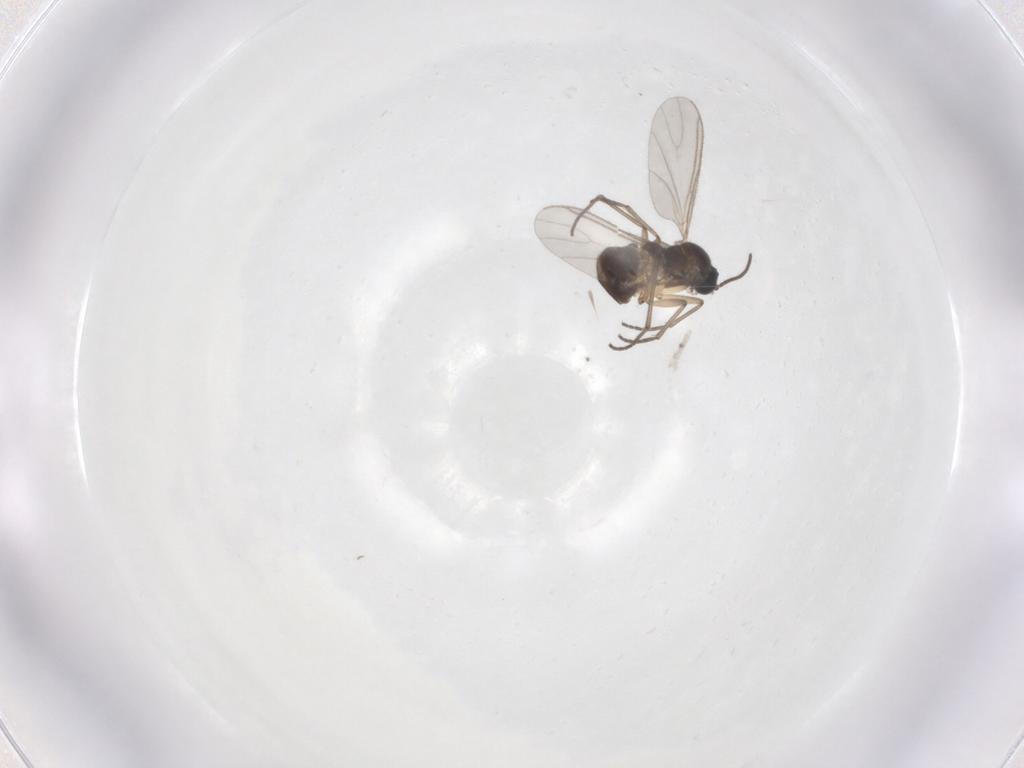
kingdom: Animalia
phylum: Arthropoda
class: Insecta
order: Diptera
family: Sciaridae
